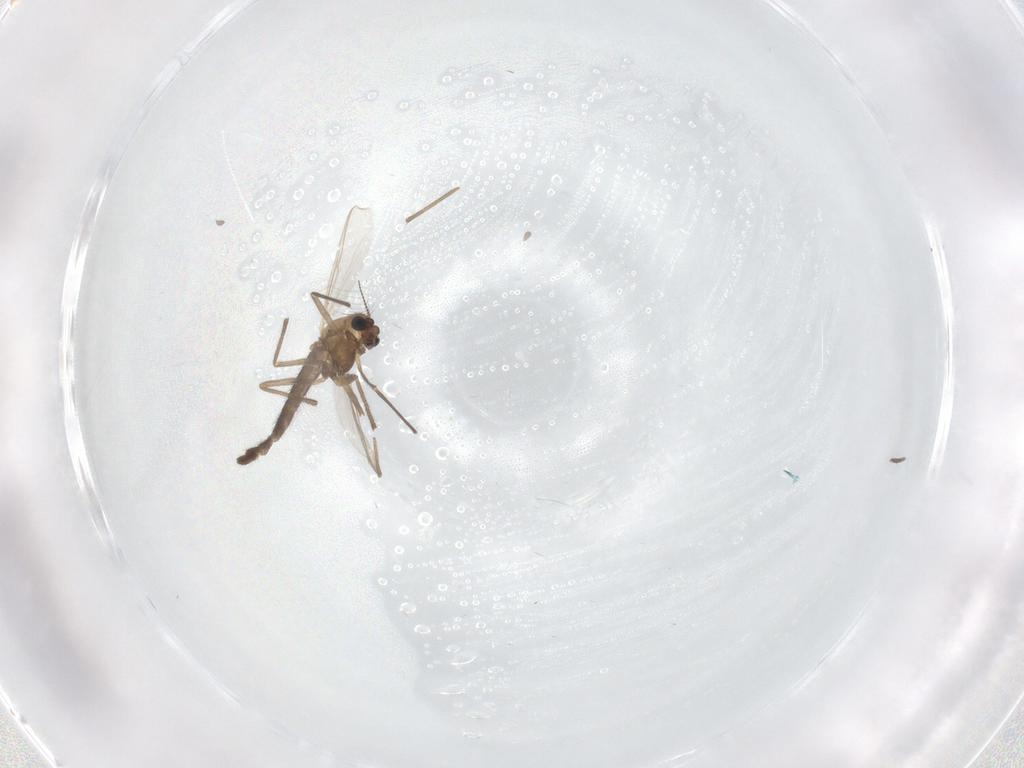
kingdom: Animalia
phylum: Arthropoda
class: Insecta
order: Diptera
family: Chironomidae
